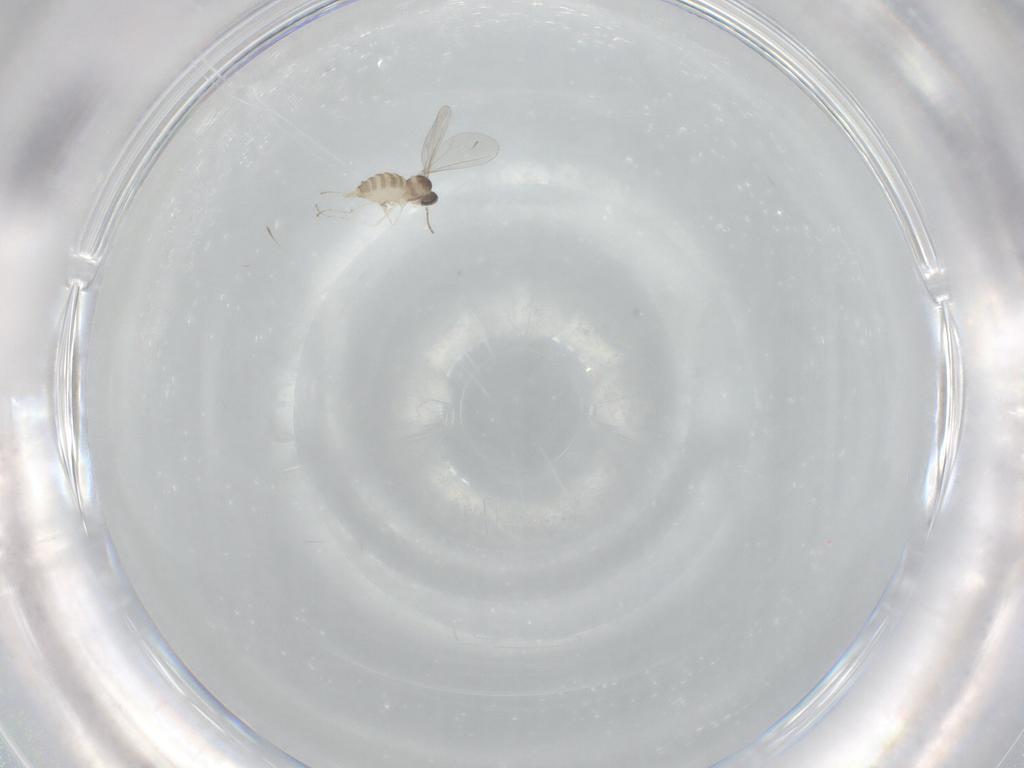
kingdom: Animalia
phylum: Arthropoda
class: Insecta
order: Diptera
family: Cecidomyiidae
